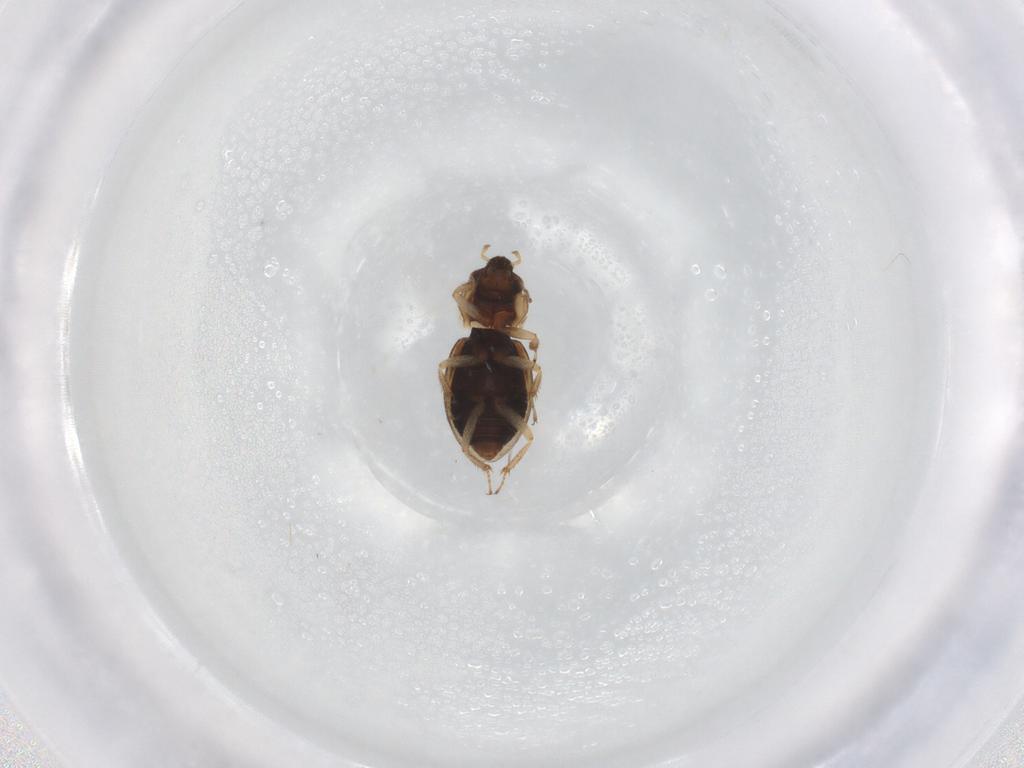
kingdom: Animalia
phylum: Arthropoda
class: Insecta
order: Coleoptera
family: Hydraenidae
